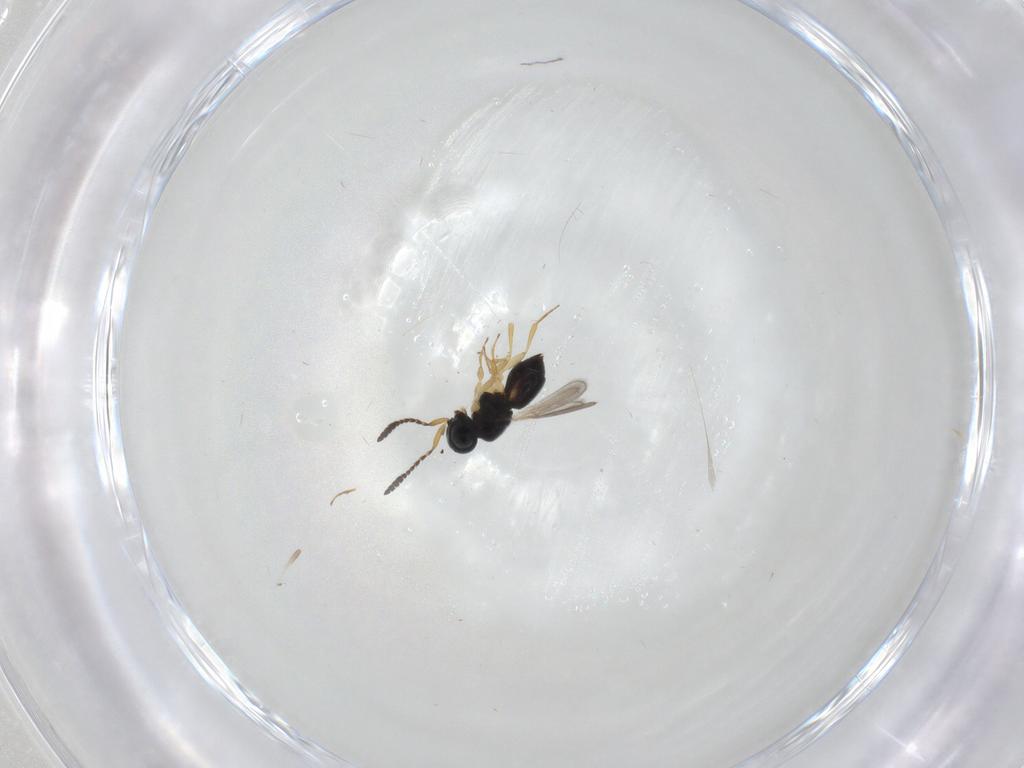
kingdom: Animalia
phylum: Arthropoda
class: Insecta
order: Hymenoptera
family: Scelionidae
